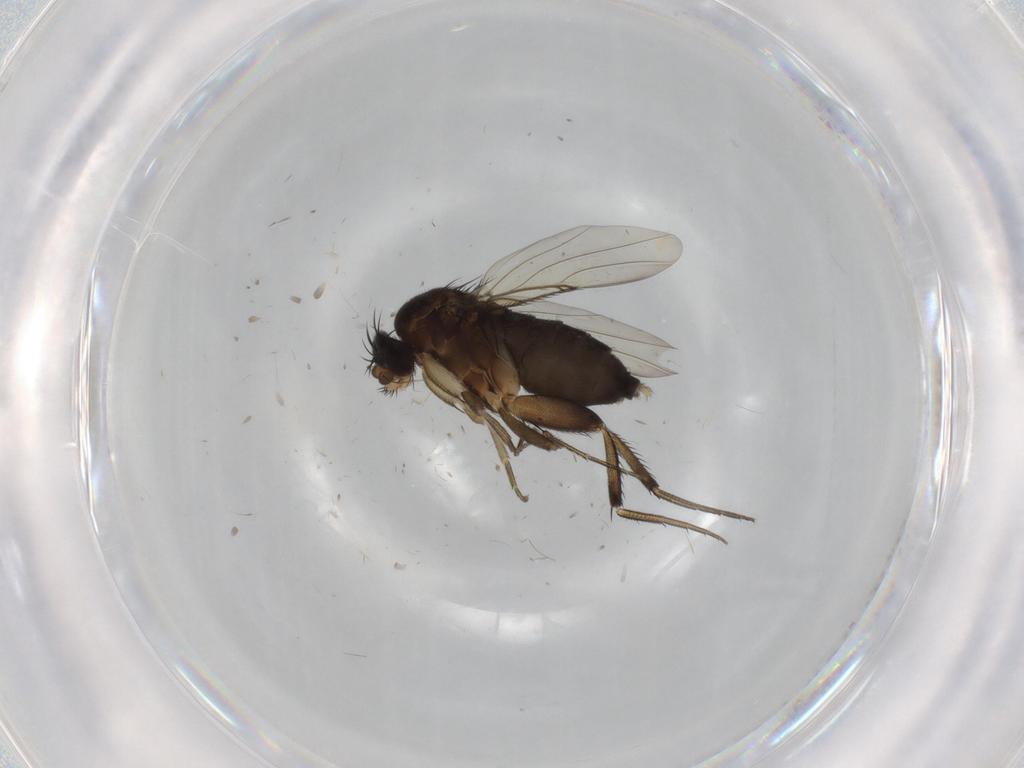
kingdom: Animalia
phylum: Arthropoda
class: Insecta
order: Diptera
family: Phoridae
